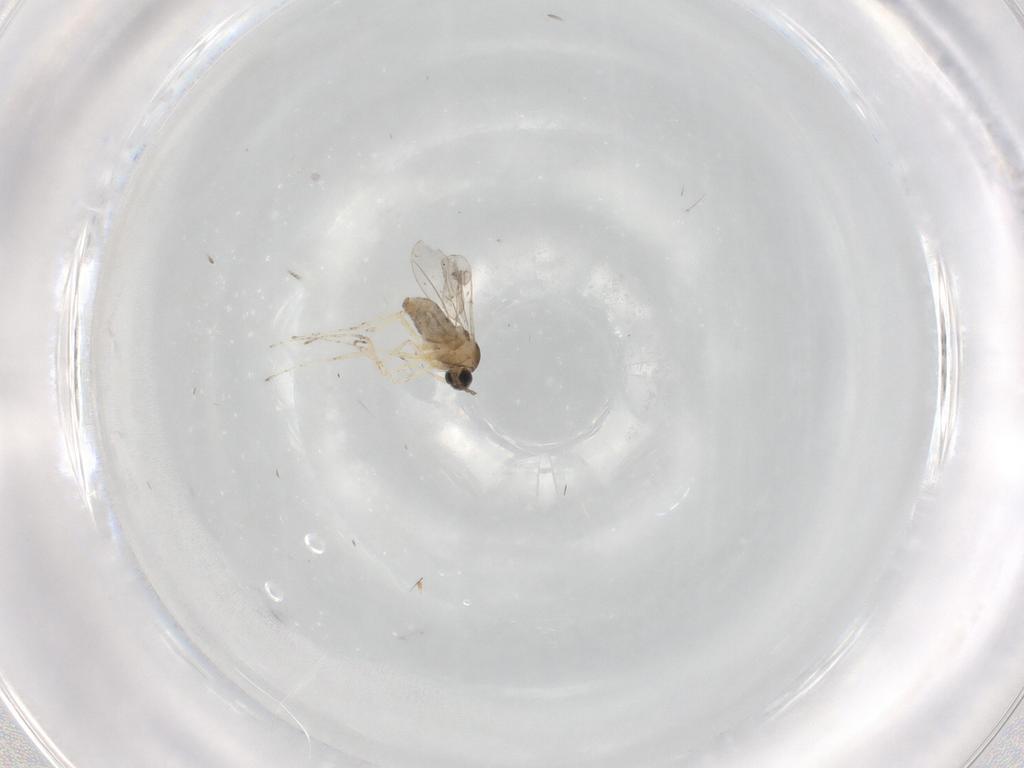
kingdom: Animalia
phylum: Arthropoda
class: Insecta
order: Diptera
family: Cecidomyiidae
